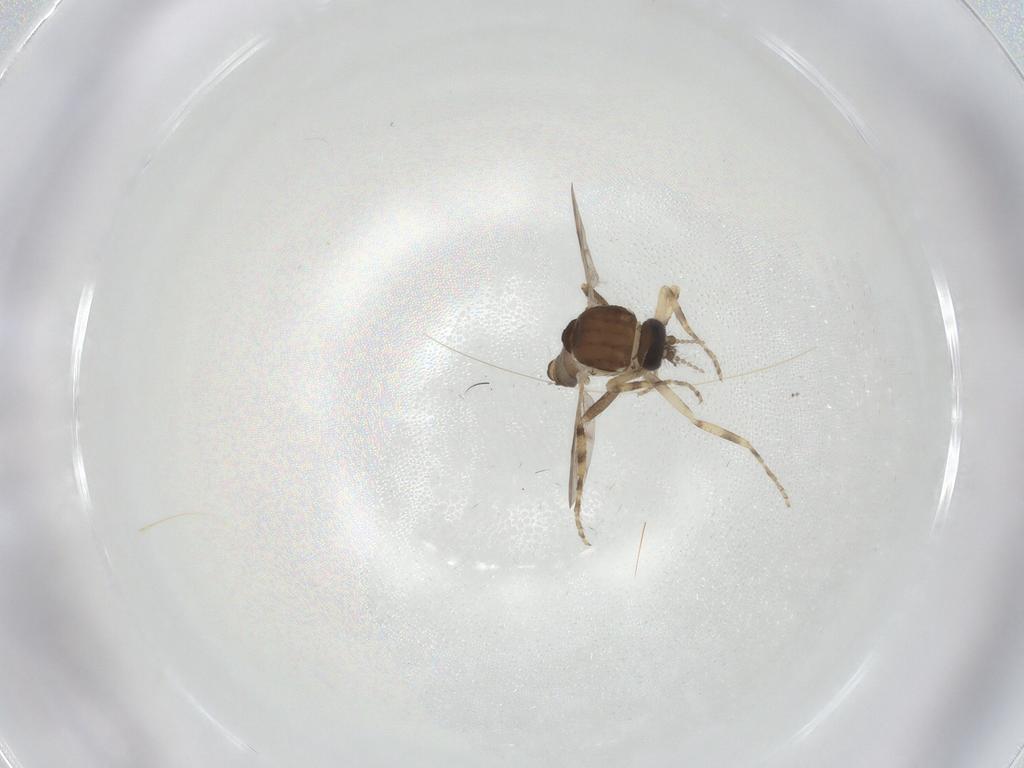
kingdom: Animalia
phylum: Arthropoda
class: Insecta
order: Diptera
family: Ceratopogonidae
